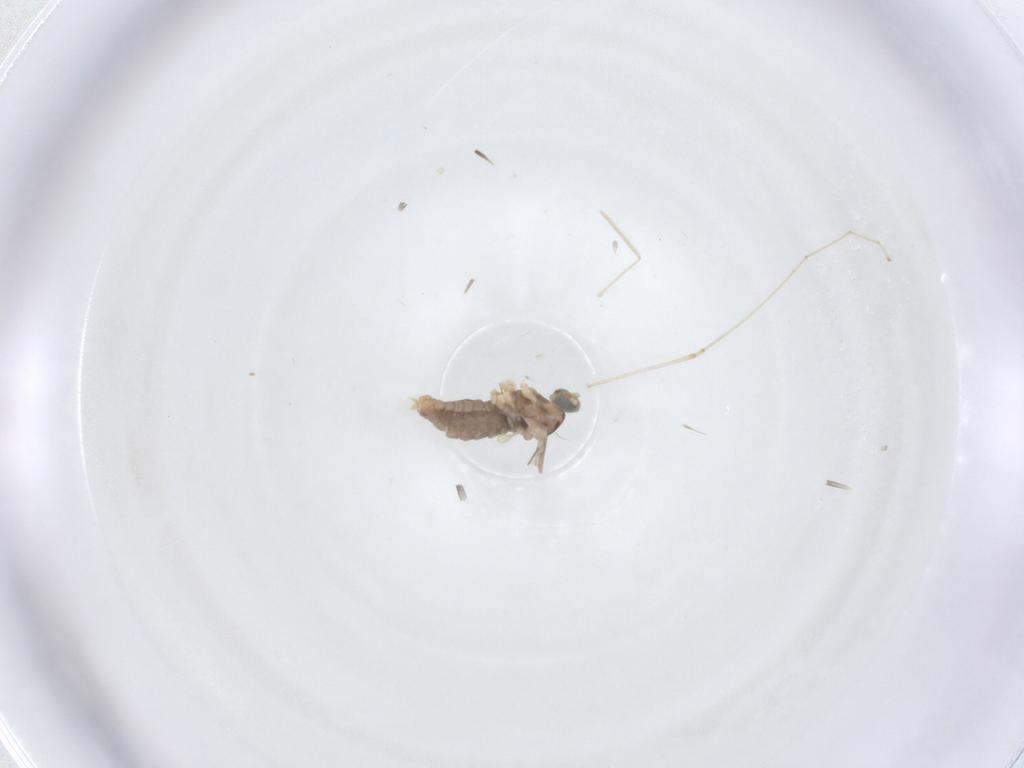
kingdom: Animalia
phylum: Arthropoda
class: Insecta
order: Diptera
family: Cecidomyiidae
